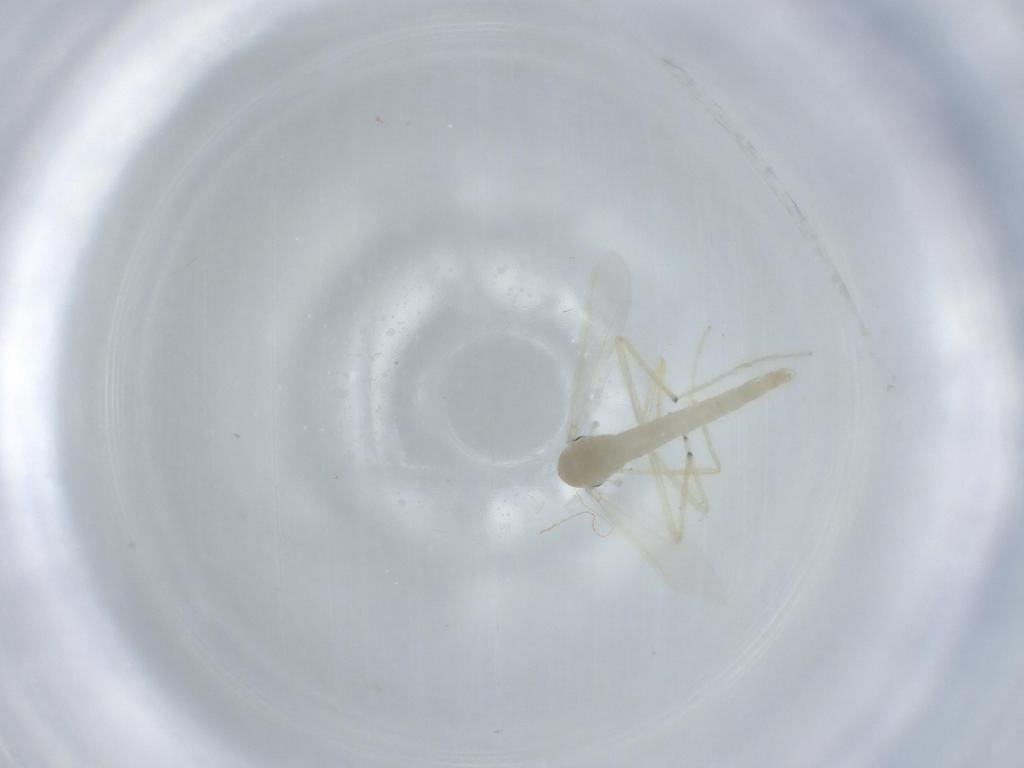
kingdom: Animalia
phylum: Arthropoda
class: Insecta
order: Diptera
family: Chironomidae
